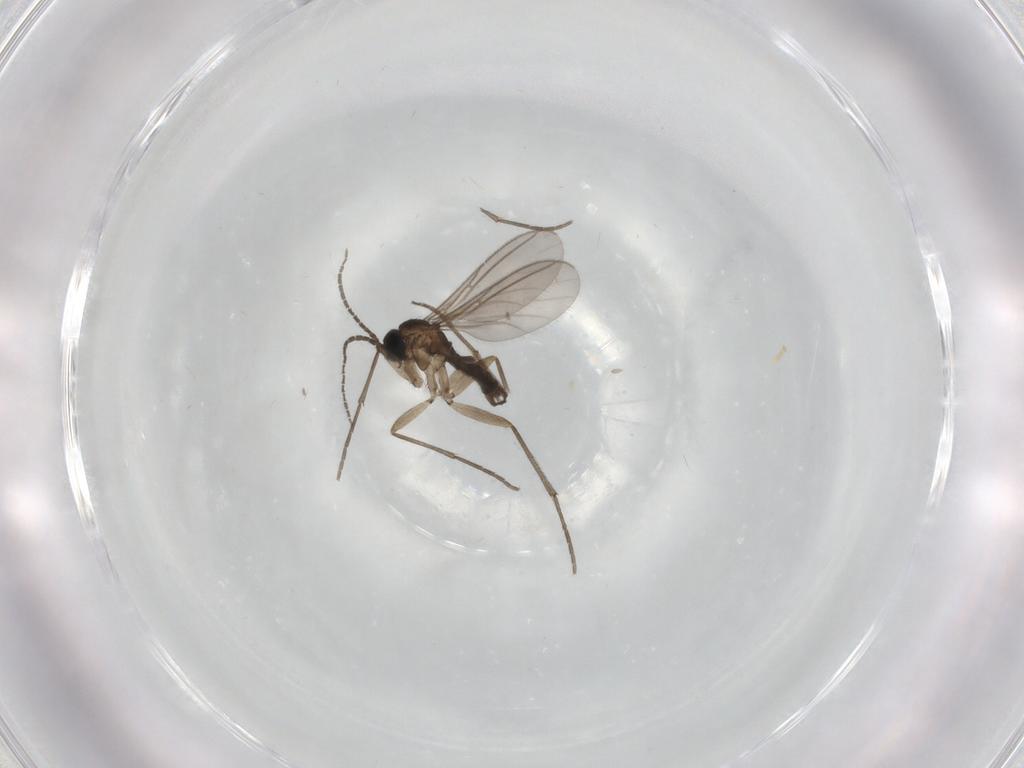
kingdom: Animalia
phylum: Arthropoda
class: Insecta
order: Diptera
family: Sciaridae
